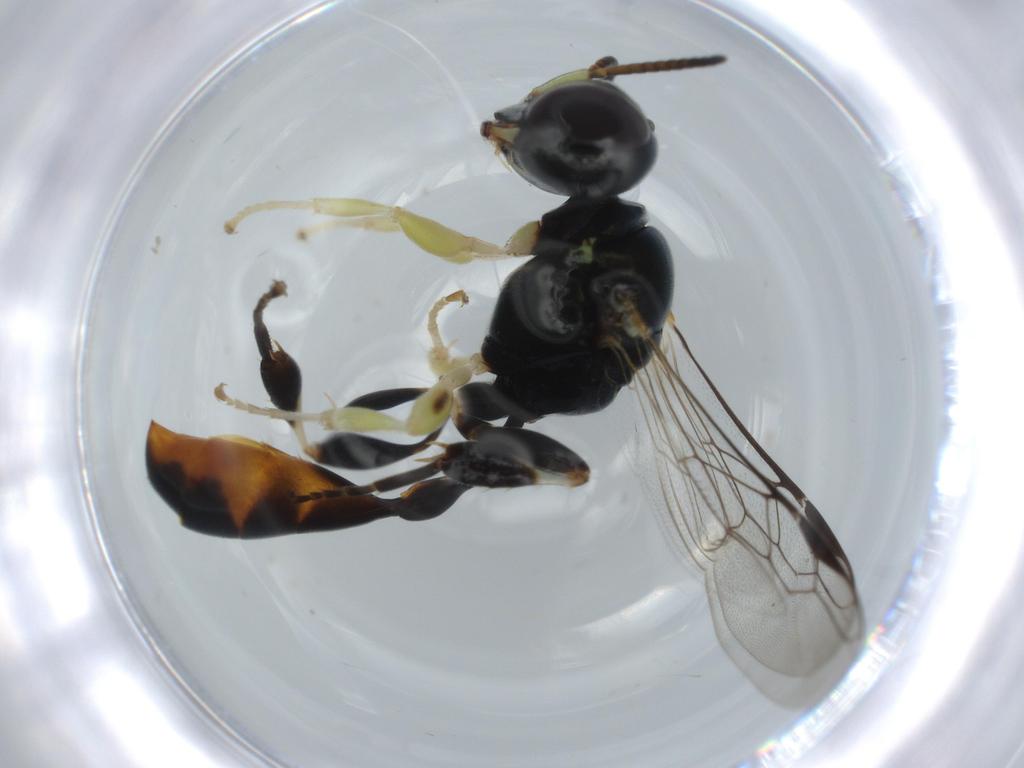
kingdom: Animalia
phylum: Arthropoda
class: Insecta
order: Hymenoptera
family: Crabronidae
